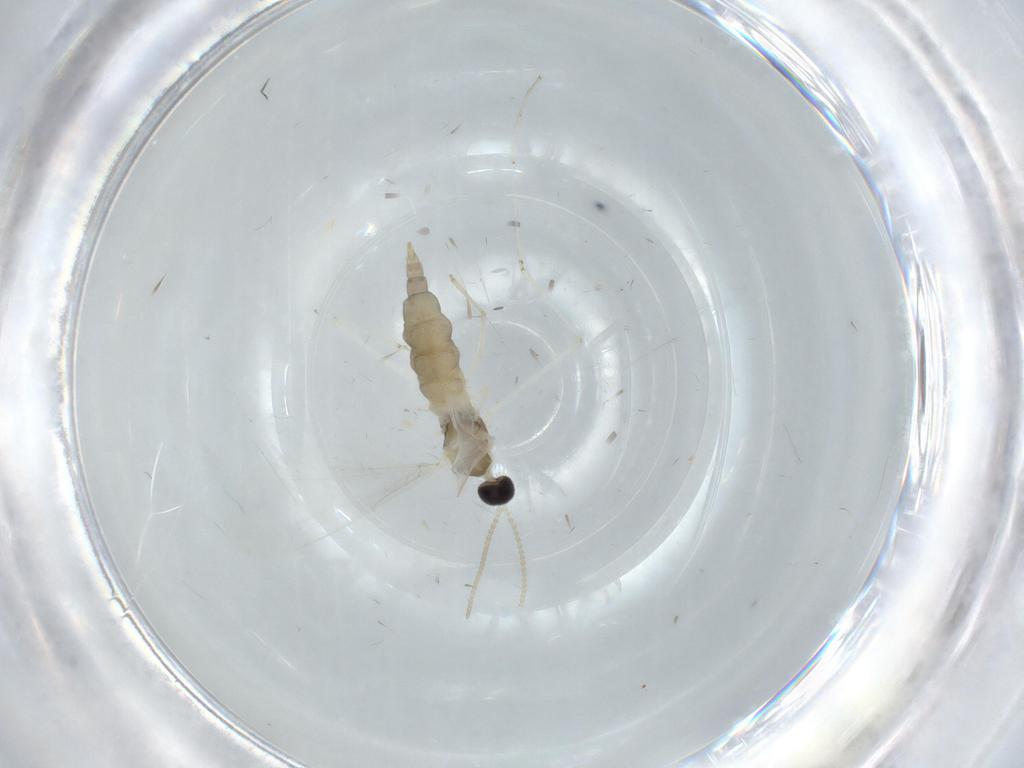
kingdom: Animalia
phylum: Arthropoda
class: Insecta
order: Diptera
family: Cecidomyiidae
